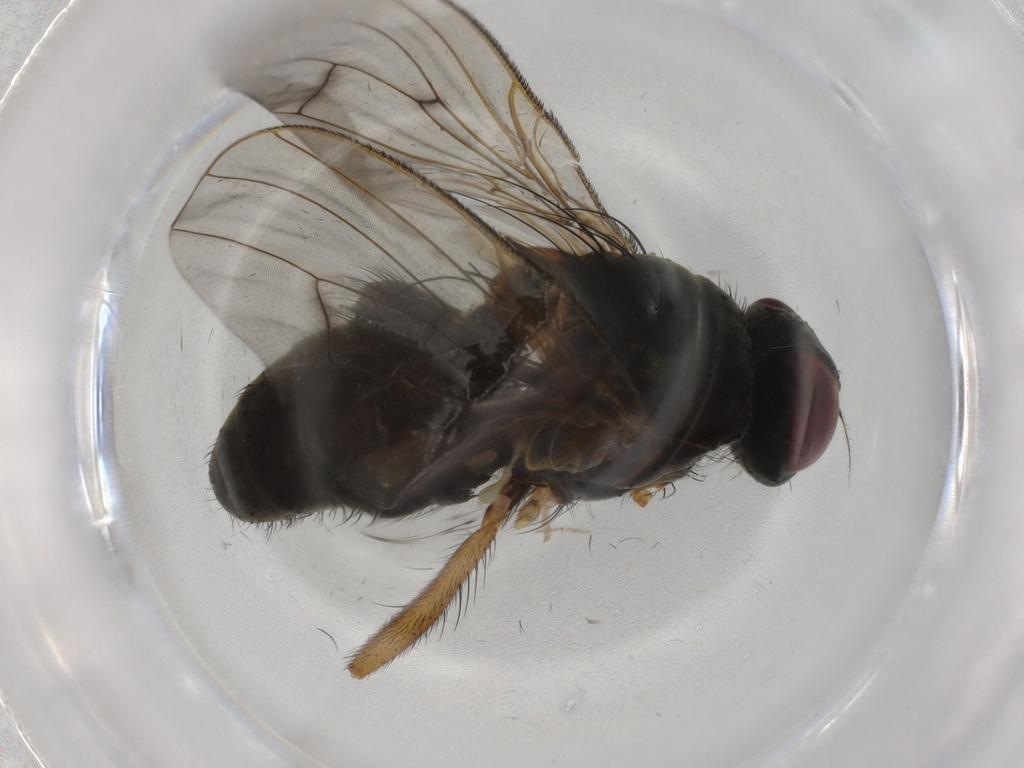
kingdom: Animalia
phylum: Arthropoda
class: Insecta
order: Diptera
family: Muscidae
